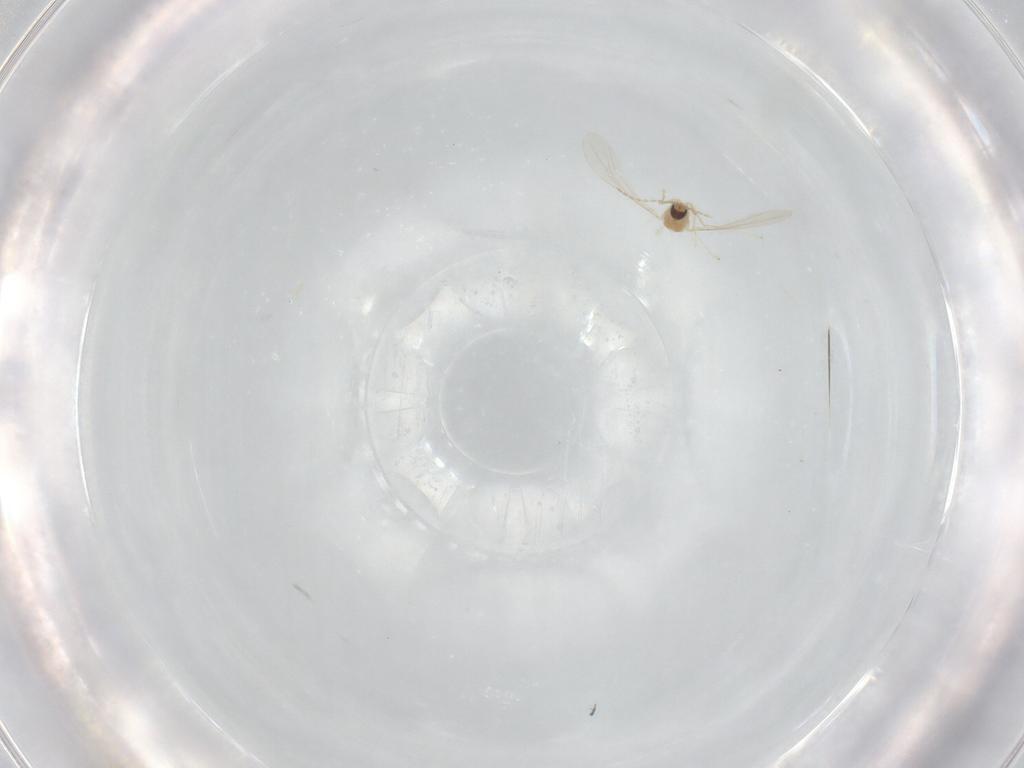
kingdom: Animalia
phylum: Arthropoda
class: Insecta
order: Diptera
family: Cecidomyiidae
